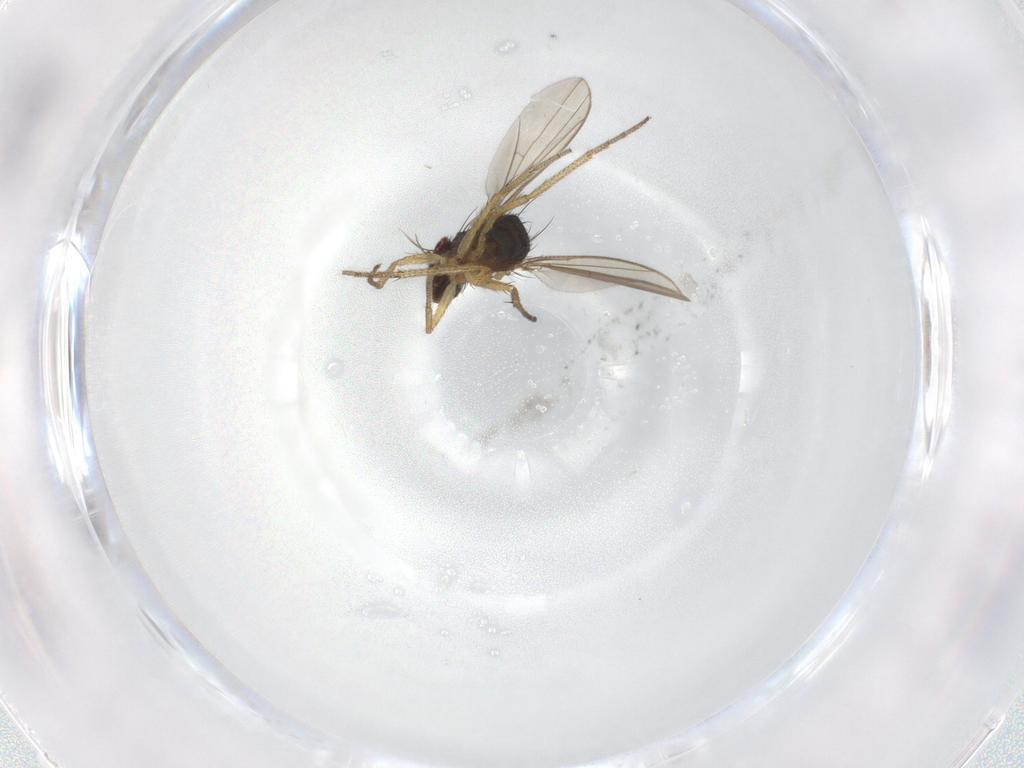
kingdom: Animalia
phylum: Arthropoda
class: Insecta
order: Diptera
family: Dolichopodidae
